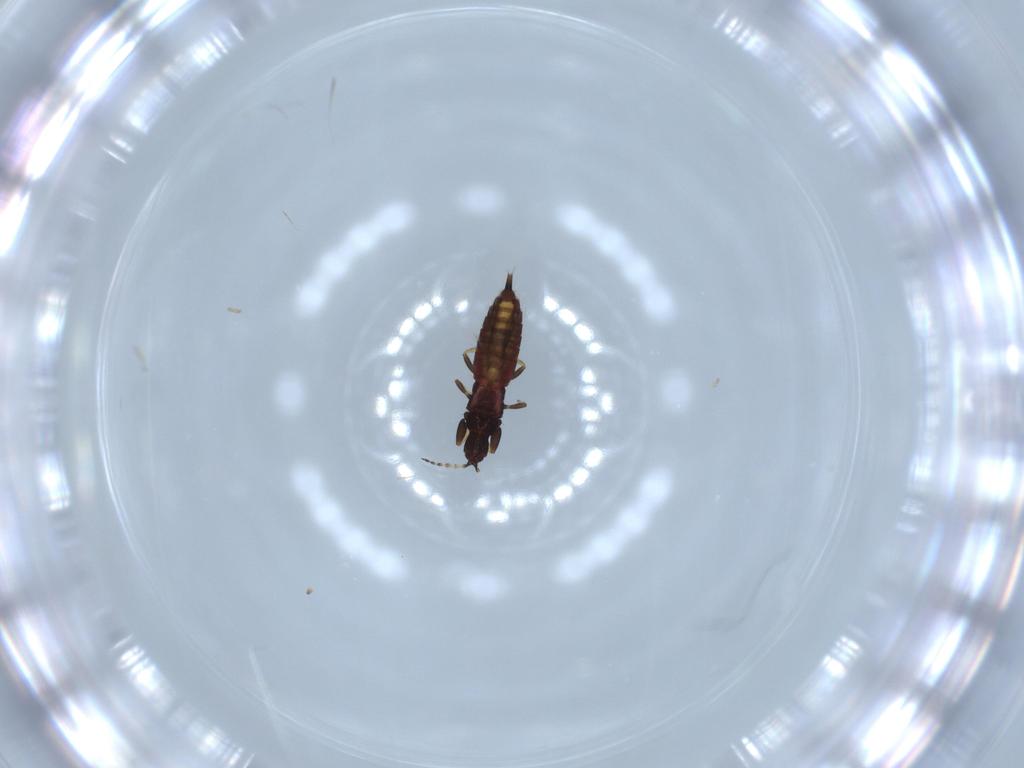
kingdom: Animalia
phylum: Arthropoda
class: Insecta
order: Thysanoptera
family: Phlaeothripidae
